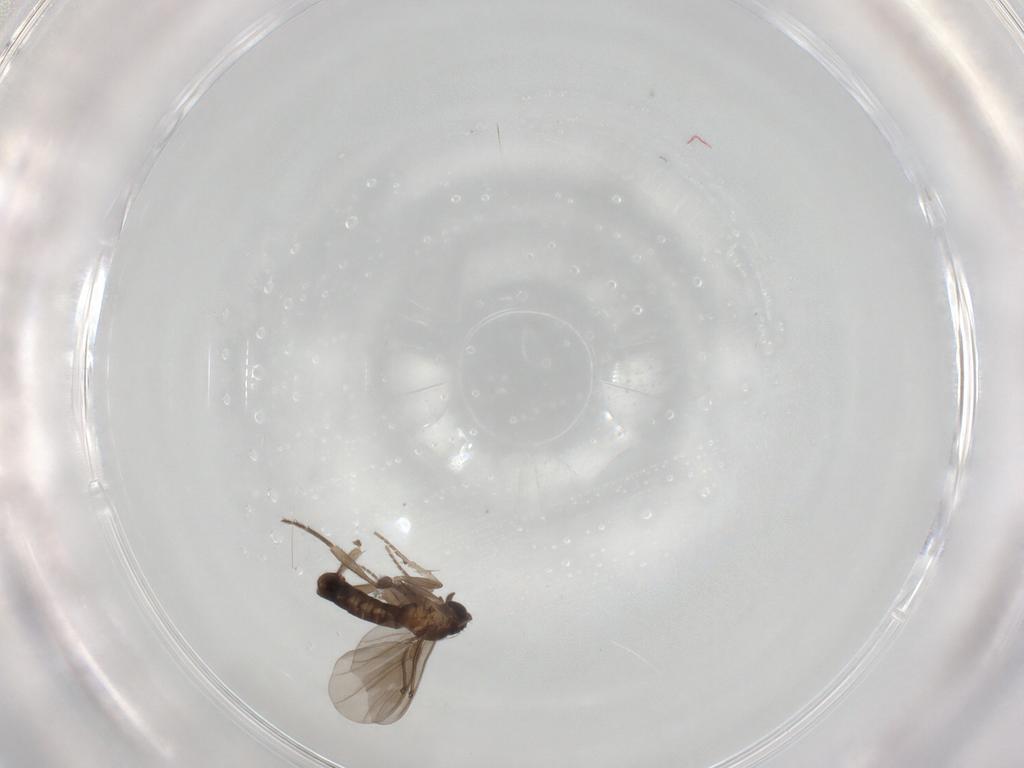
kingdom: Animalia
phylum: Arthropoda
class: Insecta
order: Diptera
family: Phoridae
